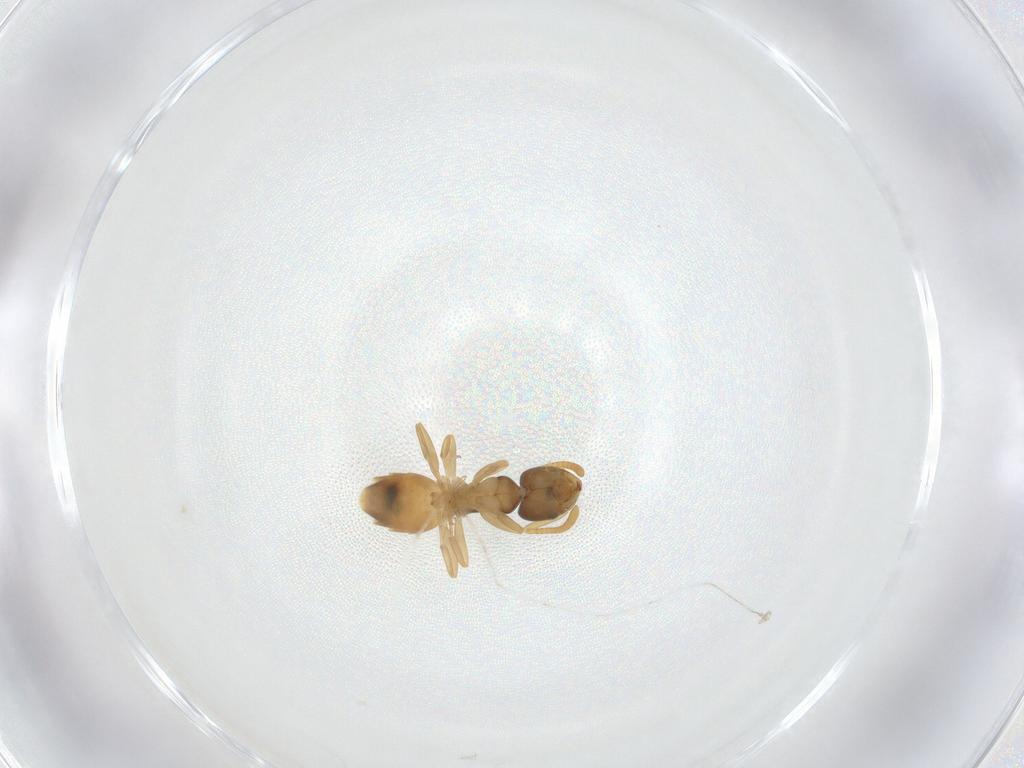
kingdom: Animalia
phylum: Arthropoda
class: Insecta
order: Hymenoptera
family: Formicidae
